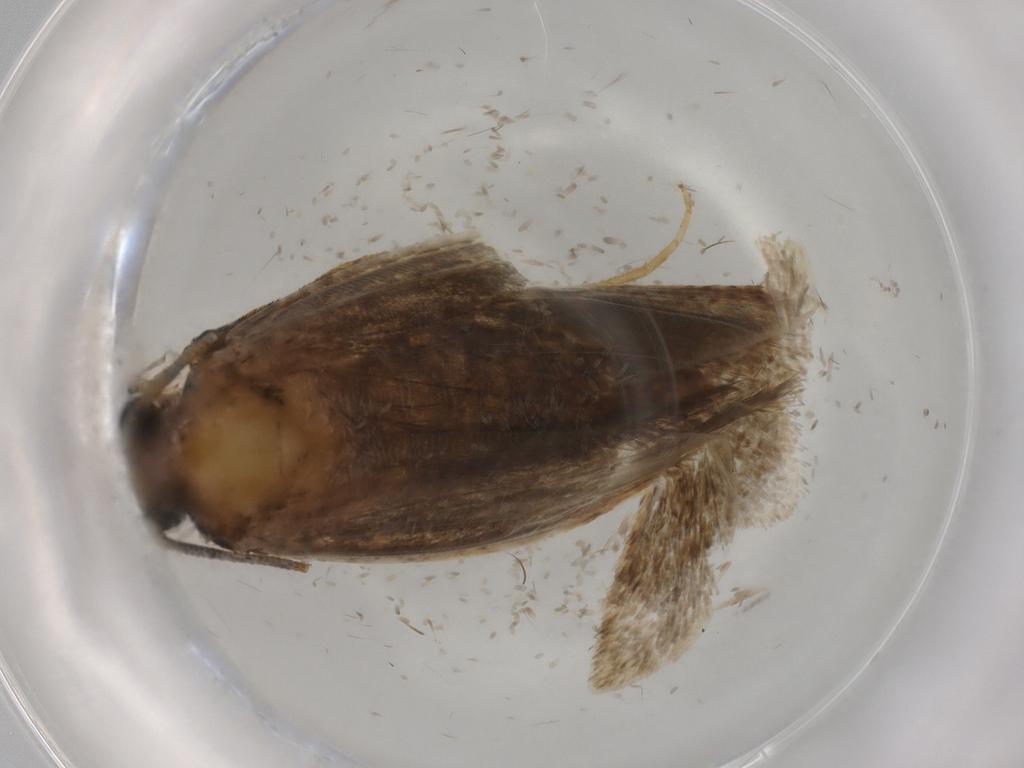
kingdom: Animalia
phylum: Arthropoda
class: Insecta
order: Lepidoptera
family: Tineidae
